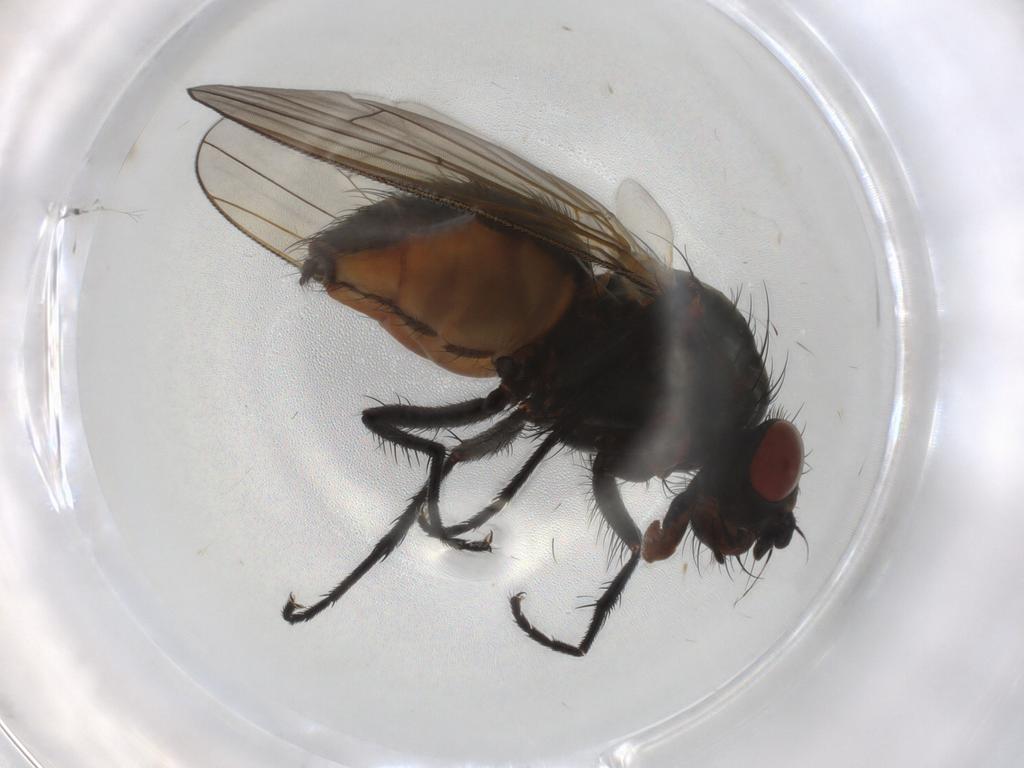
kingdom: Animalia
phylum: Arthropoda
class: Insecta
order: Diptera
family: Anthomyiidae
